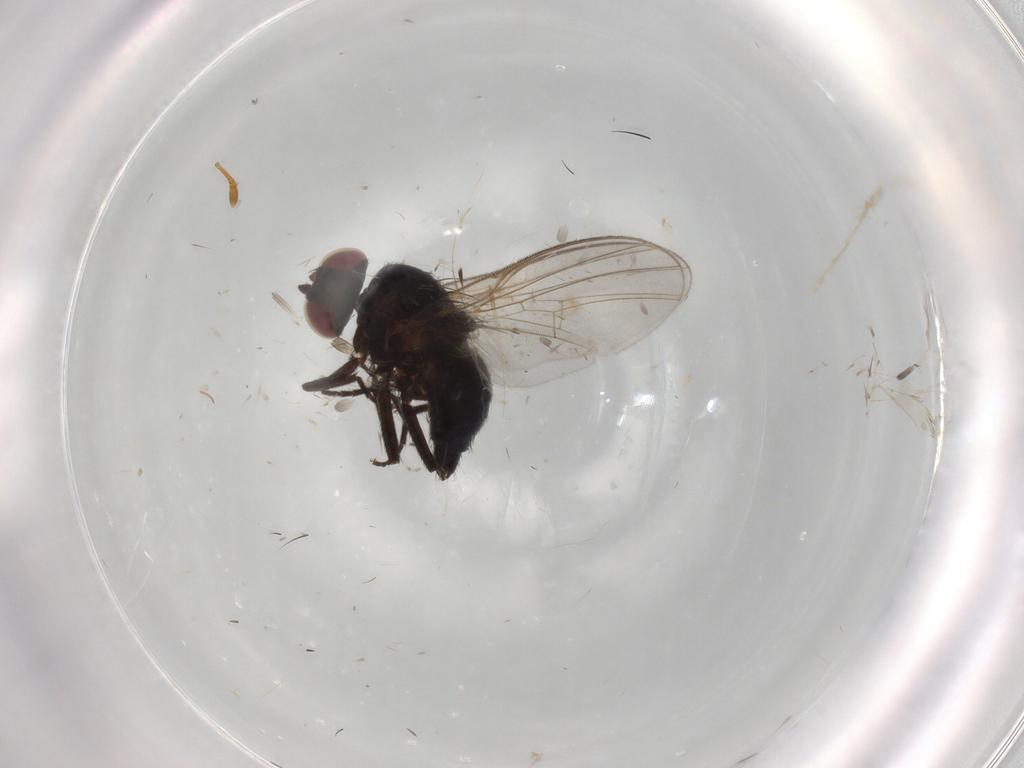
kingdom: Animalia
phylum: Arthropoda
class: Insecta
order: Diptera
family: Agromyzidae
